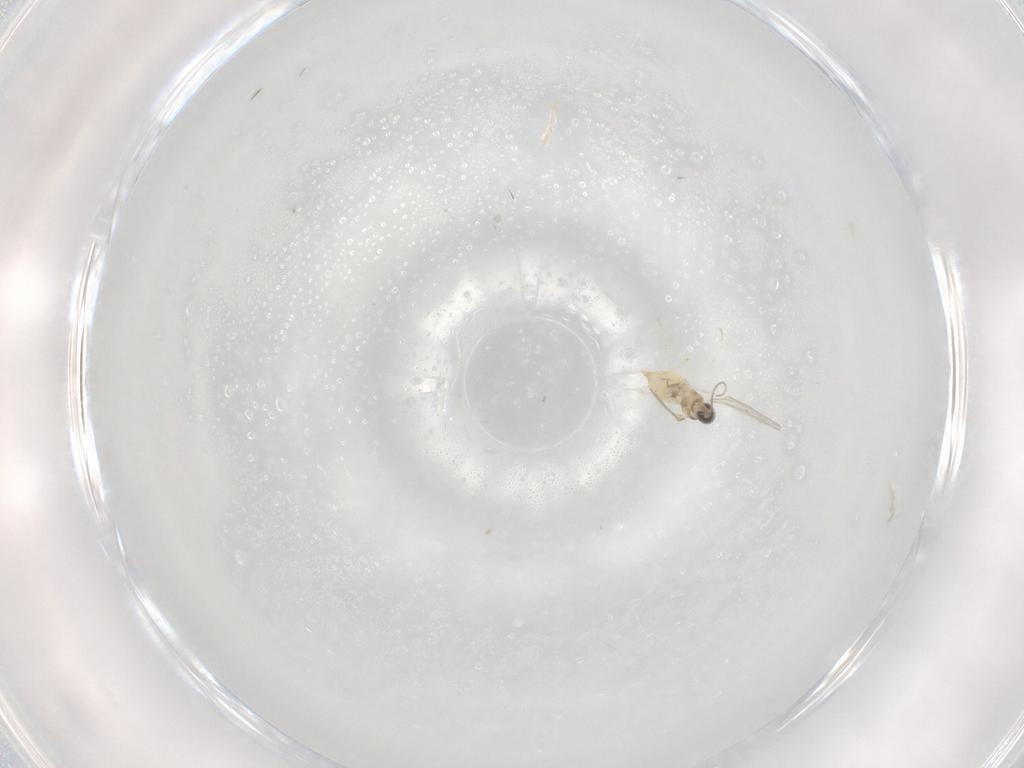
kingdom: Animalia
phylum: Arthropoda
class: Insecta
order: Diptera
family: Cecidomyiidae
